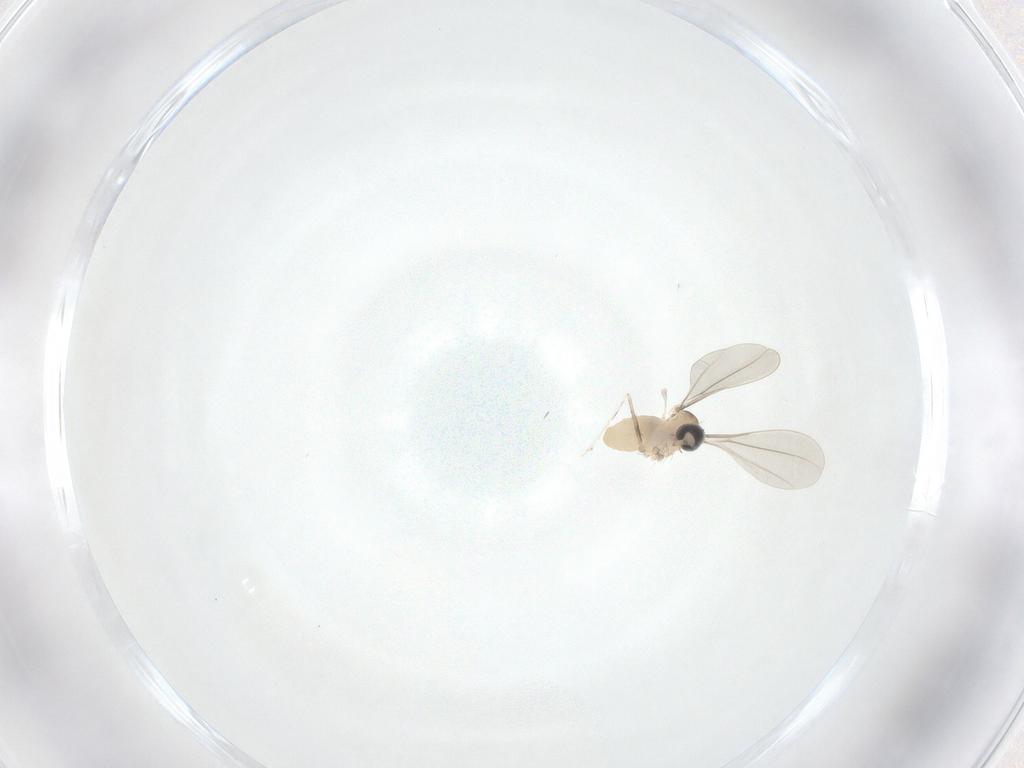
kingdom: Animalia
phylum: Arthropoda
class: Insecta
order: Diptera
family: Cecidomyiidae
